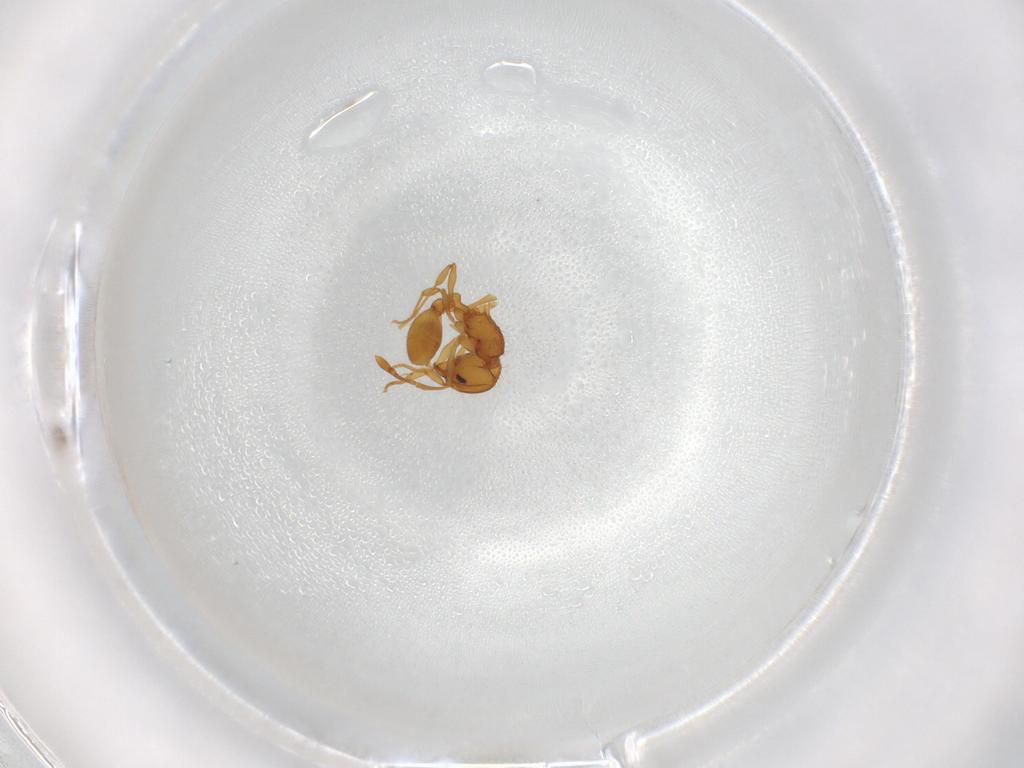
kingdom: Animalia
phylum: Arthropoda
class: Insecta
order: Hymenoptera
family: Formicidae
